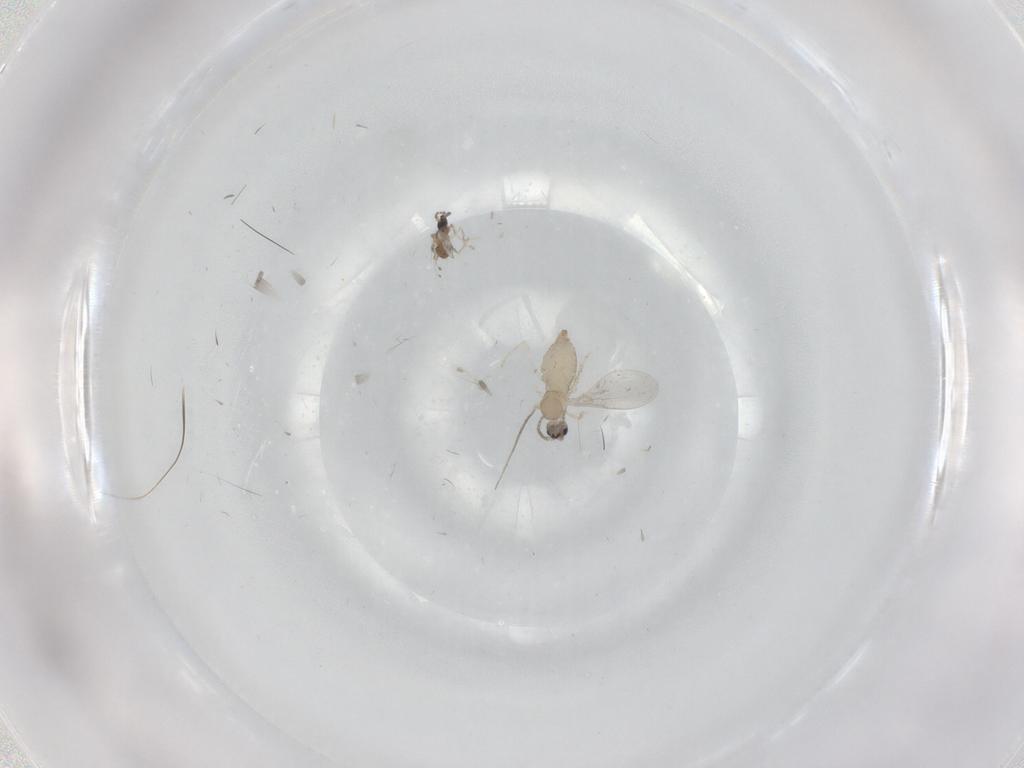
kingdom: Animalia
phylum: Arthropoda
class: Insecta
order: Diptera
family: Cecidomyiidae
